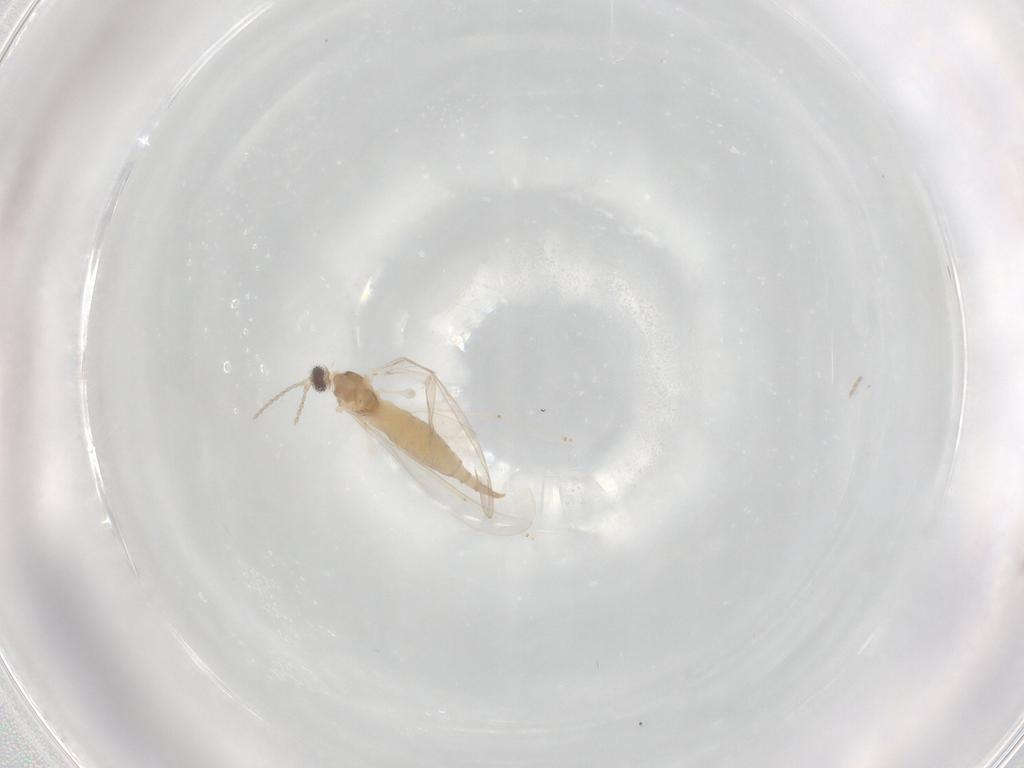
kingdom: Animalia
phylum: Arthropoda
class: Insecta
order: Diptera
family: Cecidomyiidae
